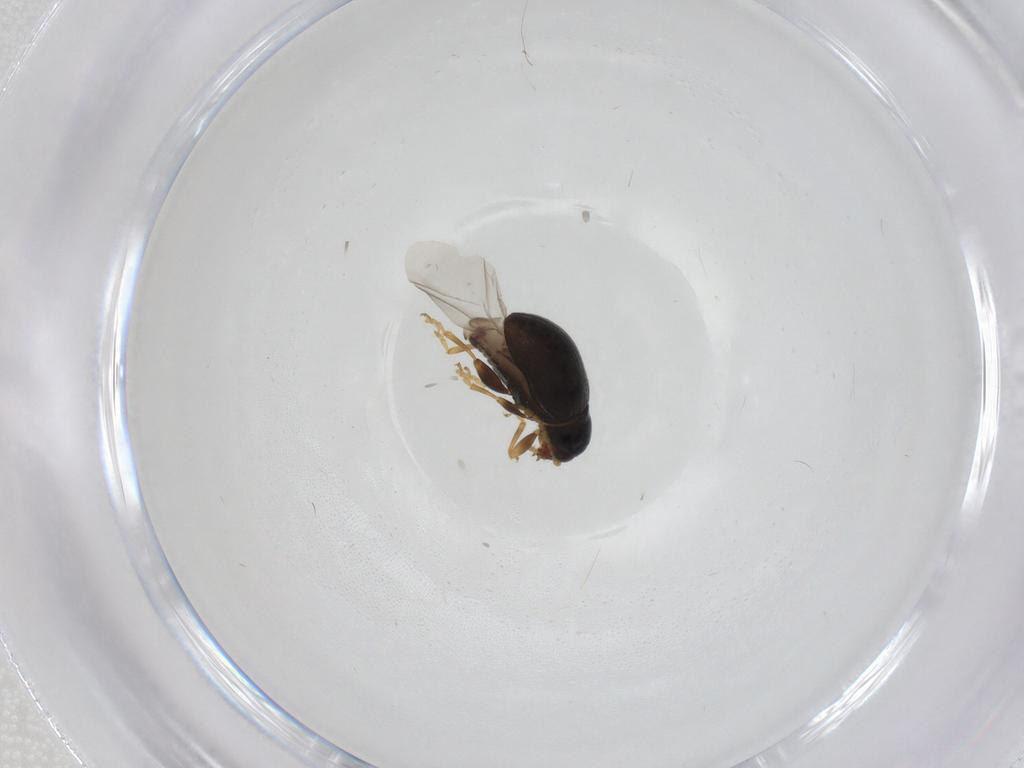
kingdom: Animalia
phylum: Arthropoda
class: Insecta
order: Coleoptera
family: Chrysomelidae
